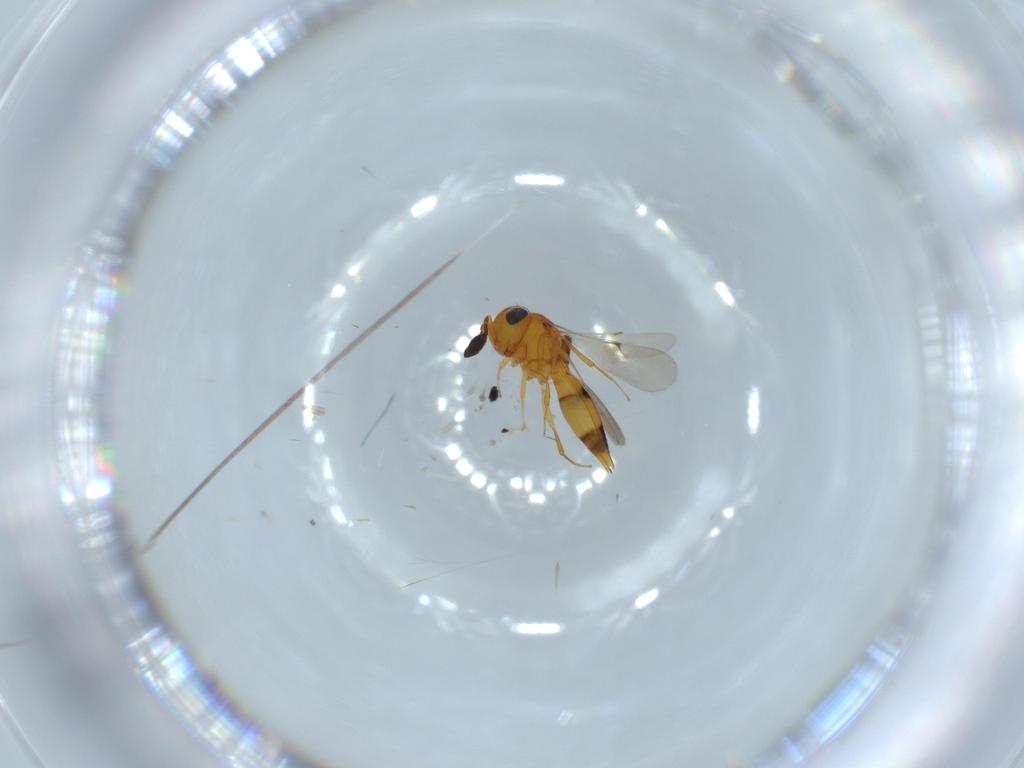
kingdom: Animalia
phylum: Arthropoda
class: Insecta
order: Hymenoptera
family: Scelionidae
